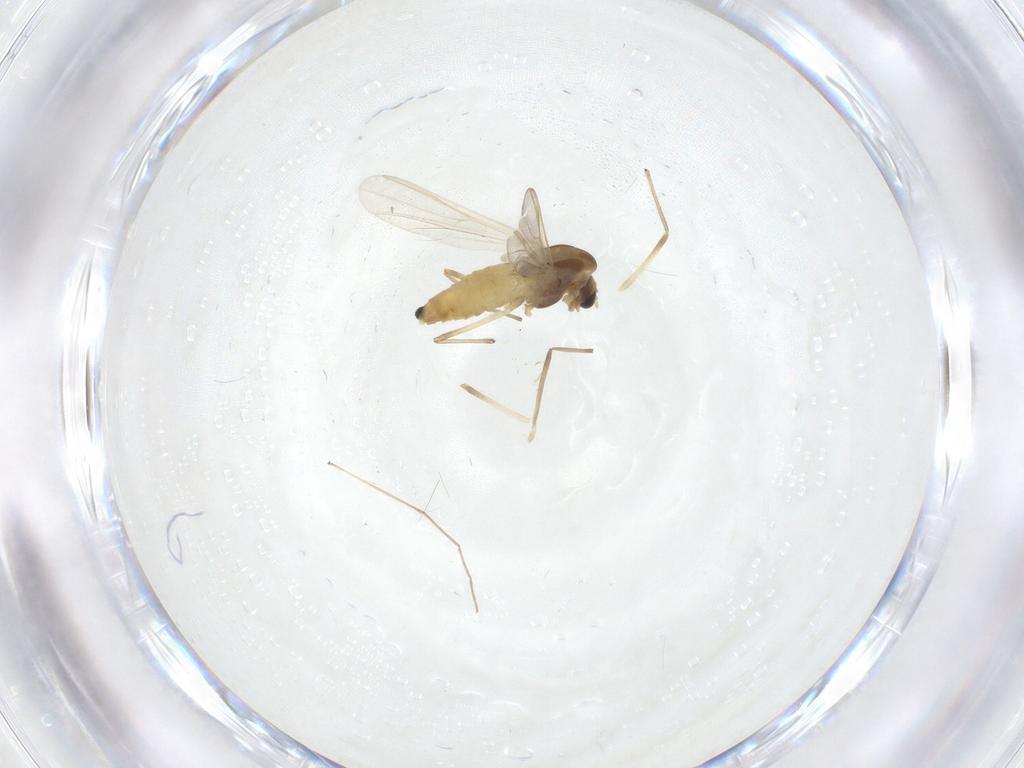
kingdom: Animalia
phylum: Arthropoda
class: Insecta
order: Diptera
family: Chironomidae
